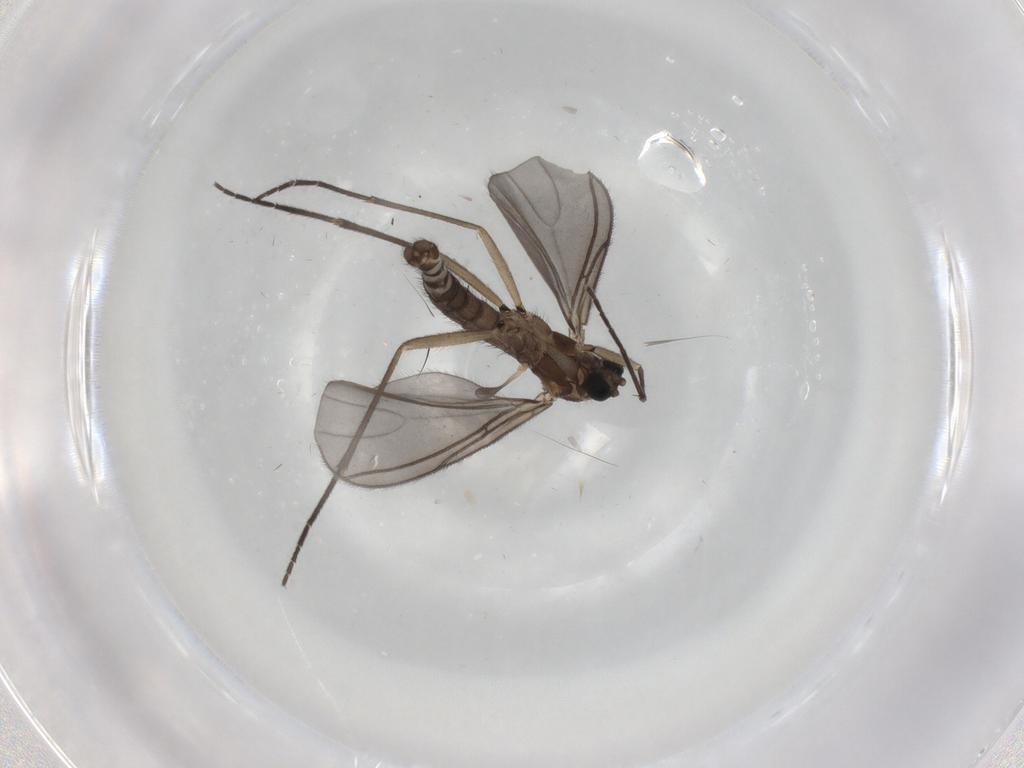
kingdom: Animalia
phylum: Arthropoda
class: Insecta
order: Diptera
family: Sciaridae
